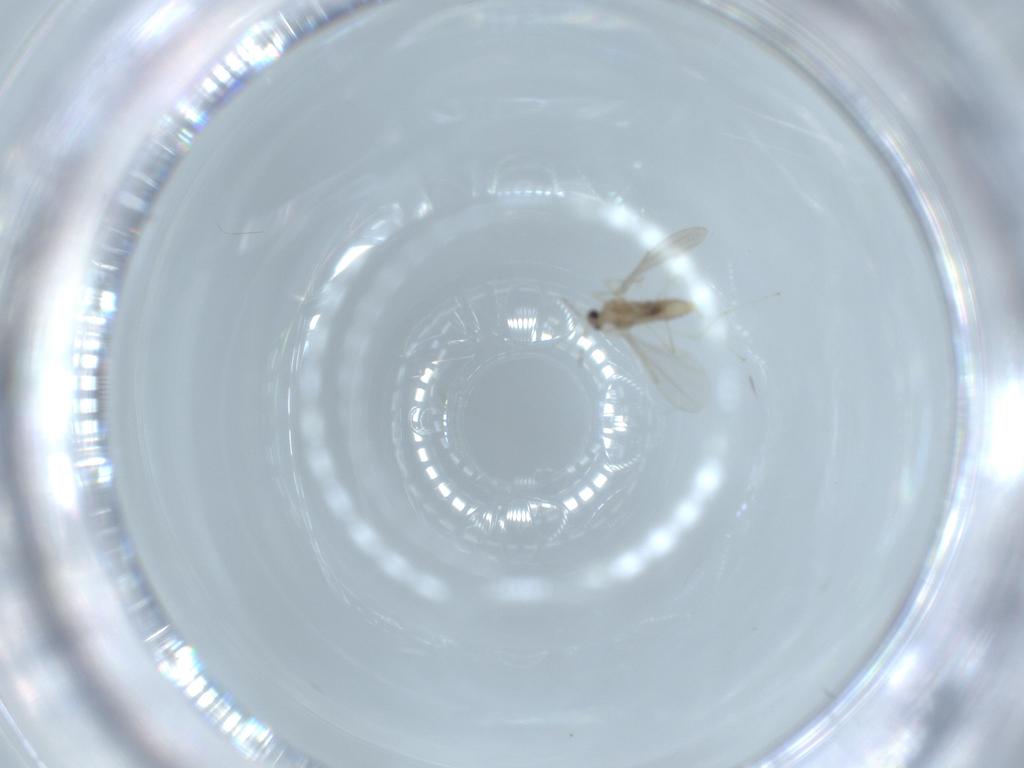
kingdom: Animalia
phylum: Arthropoda
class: Insecta
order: Diptera
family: Cecidomyiidae
